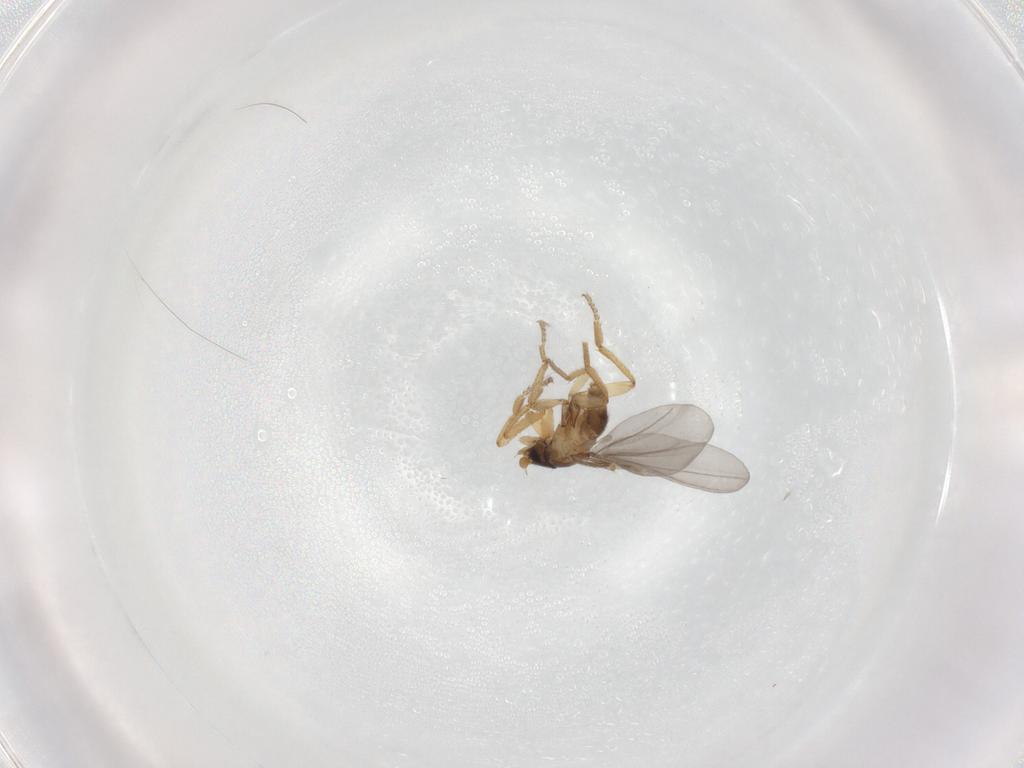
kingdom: Animalia
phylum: Arthropoda
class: Insecta
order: Diptera
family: Phoridae
